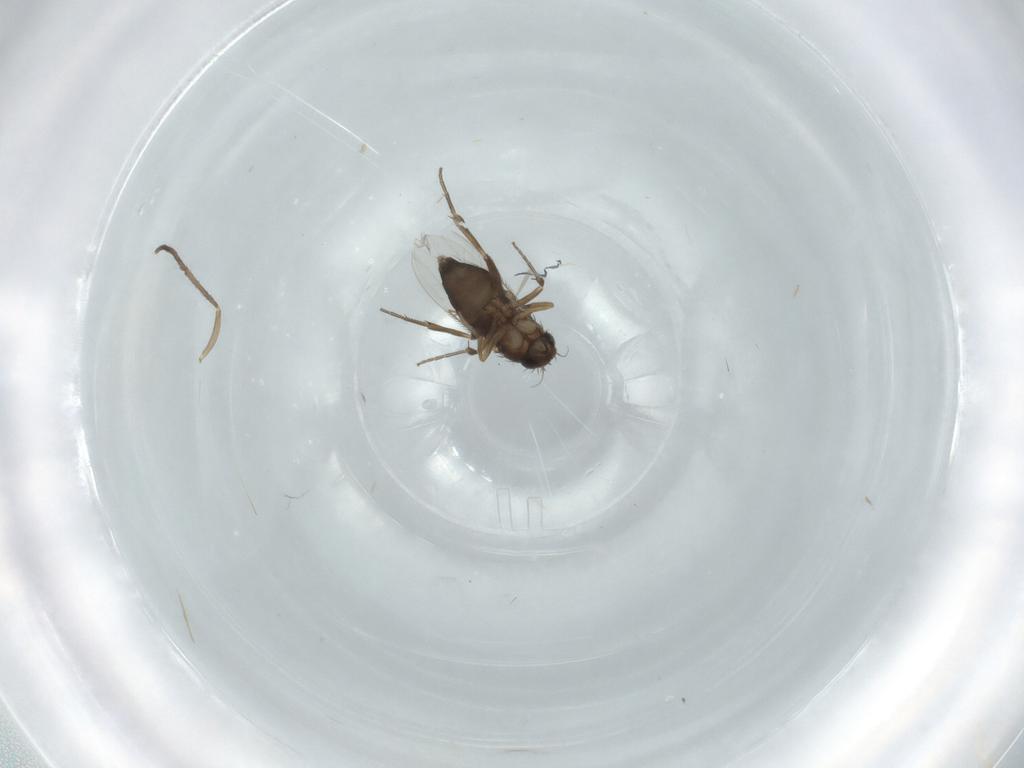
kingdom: Animalia
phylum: Arthropoda
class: Insecta
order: Diptera
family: Phoridae
